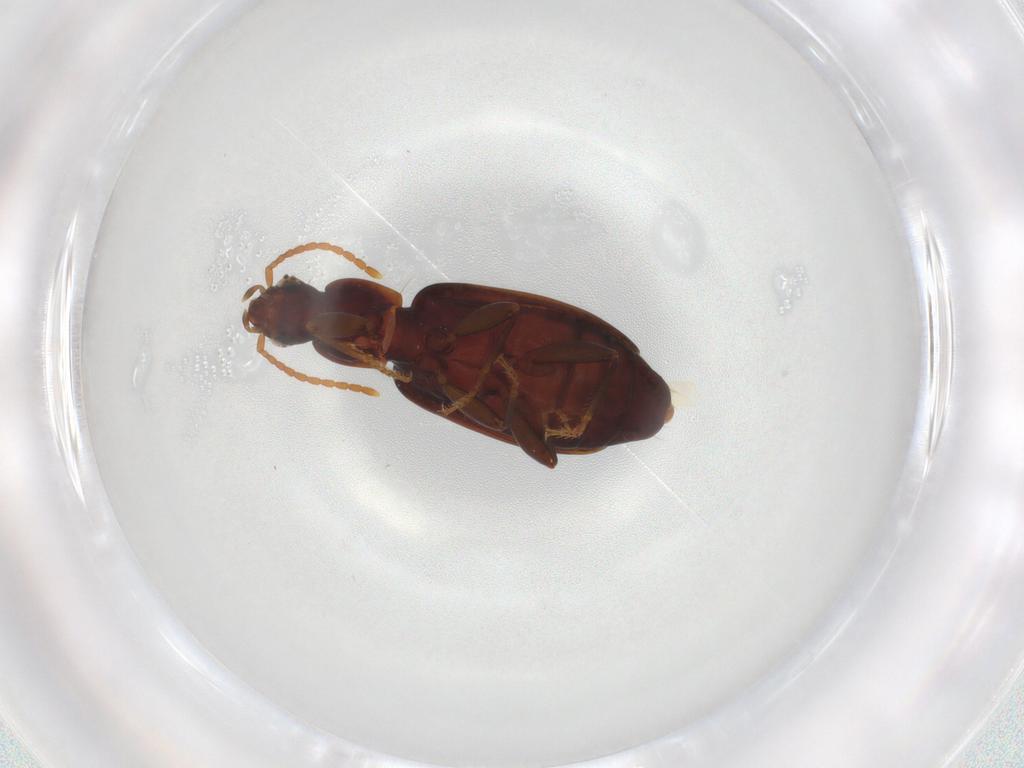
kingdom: Animalia
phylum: Arthropoda
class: Insecta
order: Coleoptera
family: Carabidae
